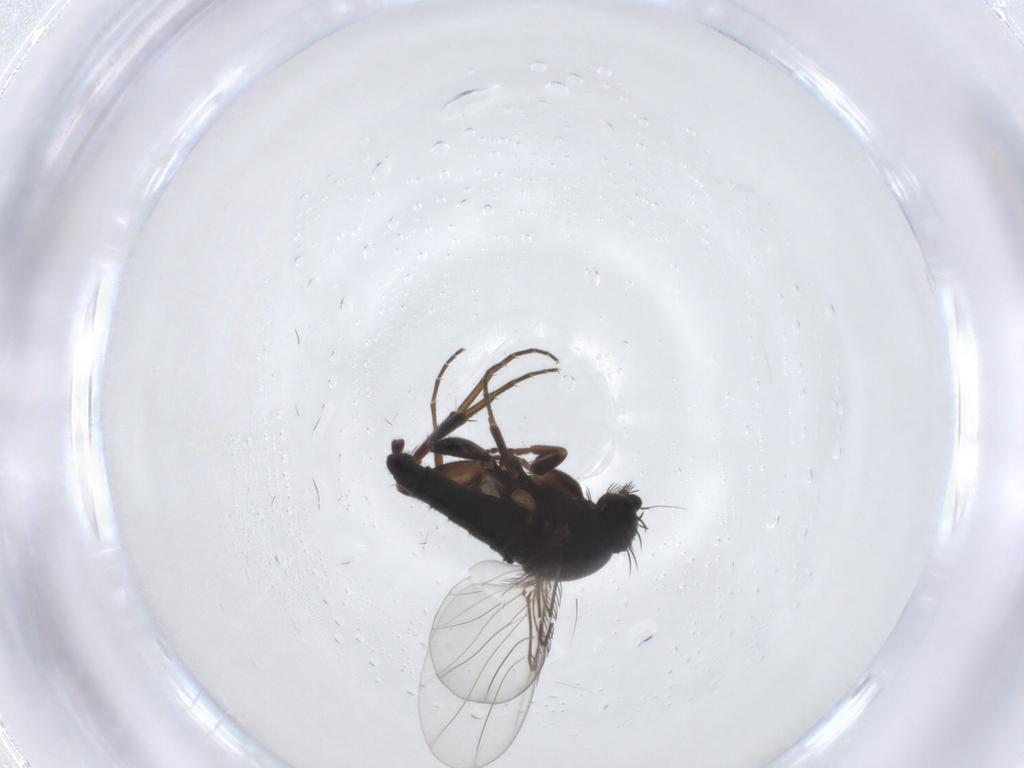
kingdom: Animalia
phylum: Arthropoda
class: Insecta
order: Diptera
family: Phoridae
